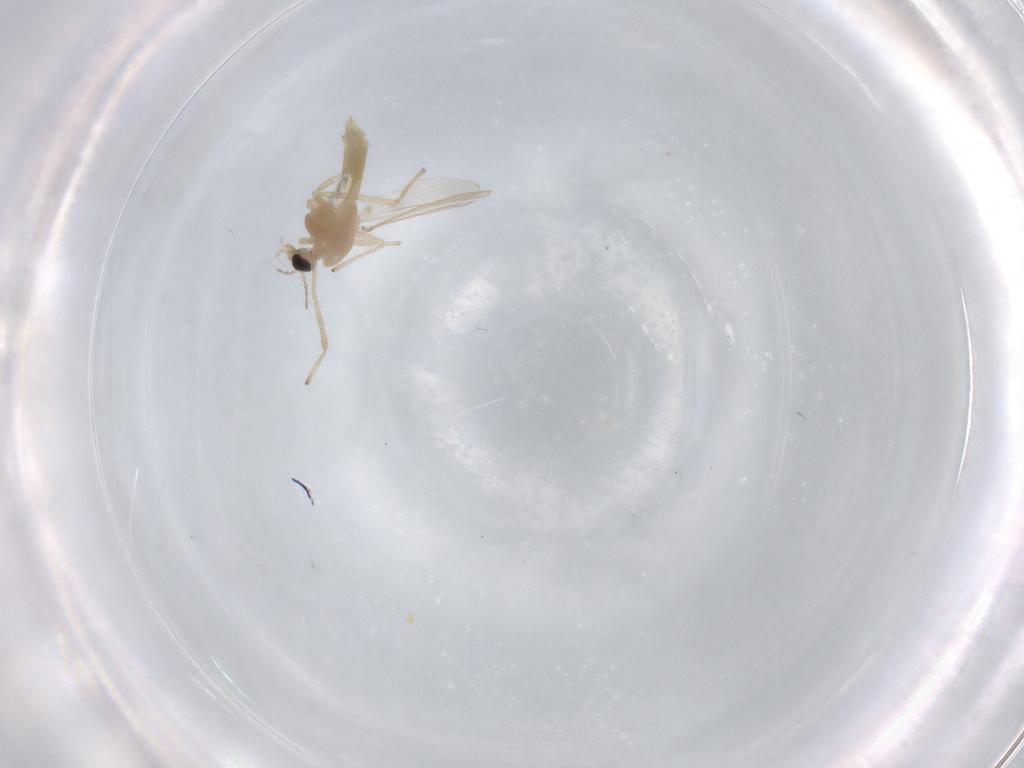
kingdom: Animalia
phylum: Arthropoda
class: Insecta
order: Diptera
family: Chironomidae
